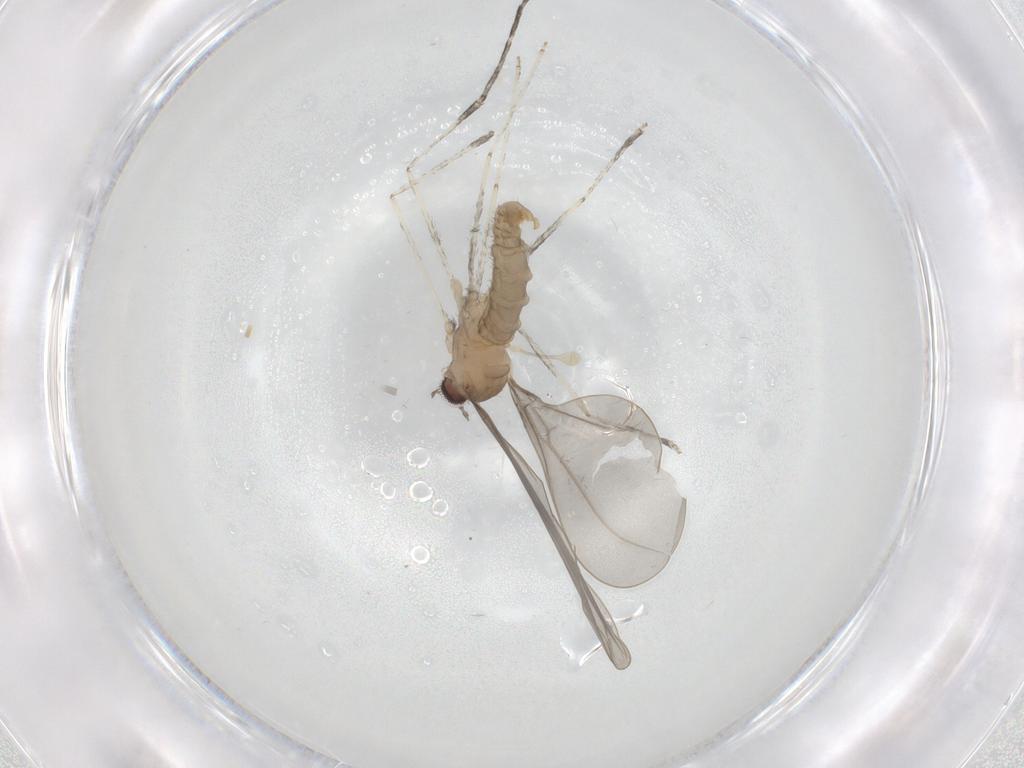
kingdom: Animalia
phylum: Arthropoda
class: Insecta
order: Diptera
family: Cecidomyiidae
